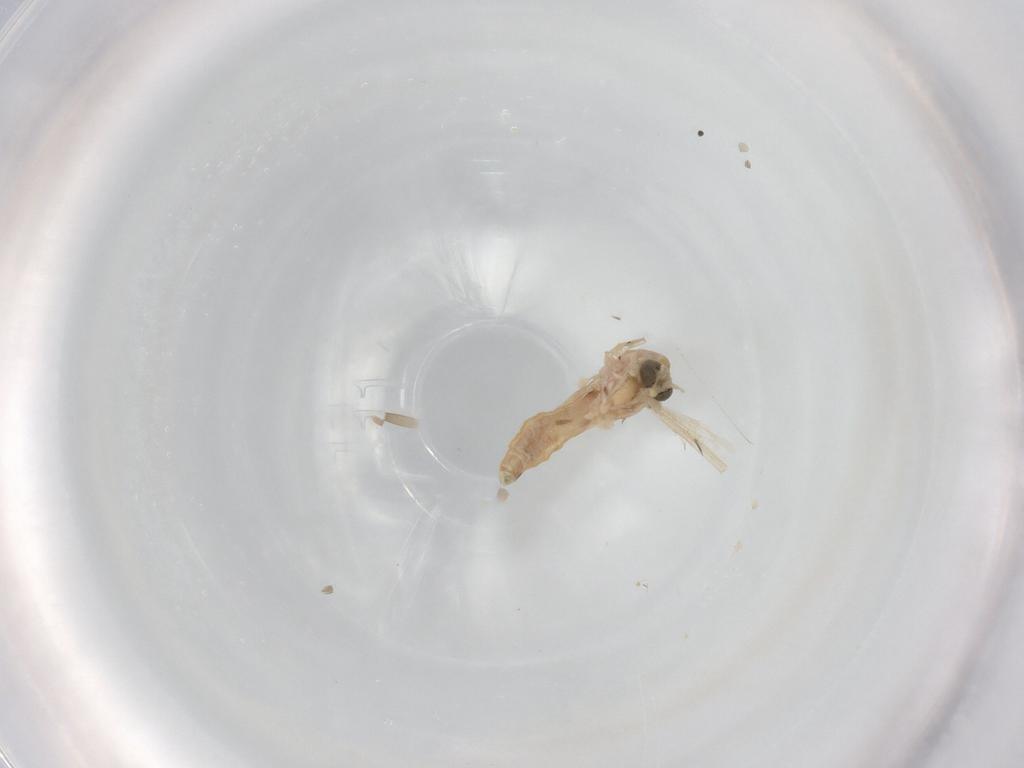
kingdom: Animalia
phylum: Arthropoda
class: Insecta
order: Diptera
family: Chironomidae
